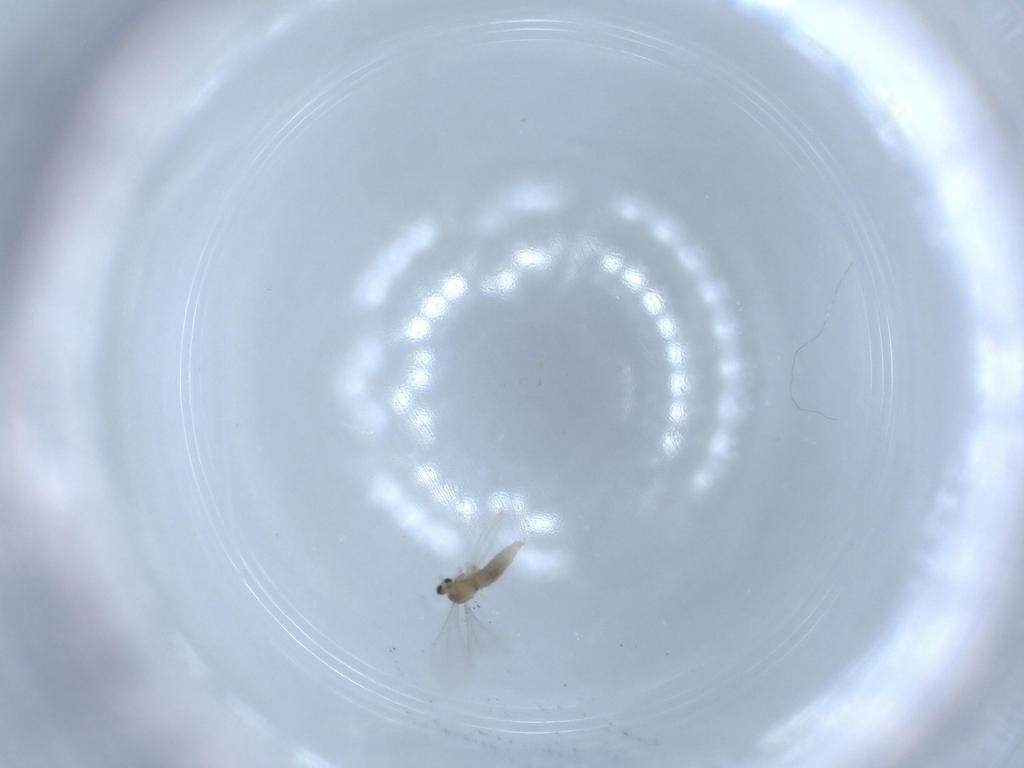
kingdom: Animalia
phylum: Arthropoda
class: Insecta
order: Diptera
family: Cecidomyiidae
